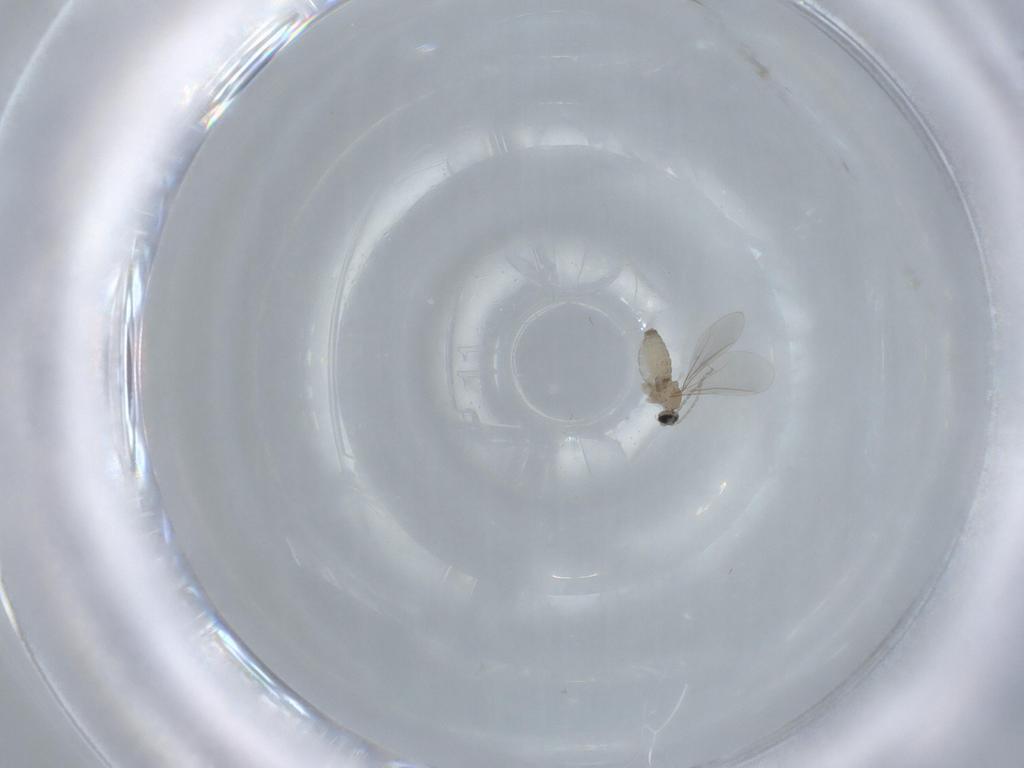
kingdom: Animalia
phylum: Arthropoda
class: Insecta
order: Diptera
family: Cecidomyiidae
